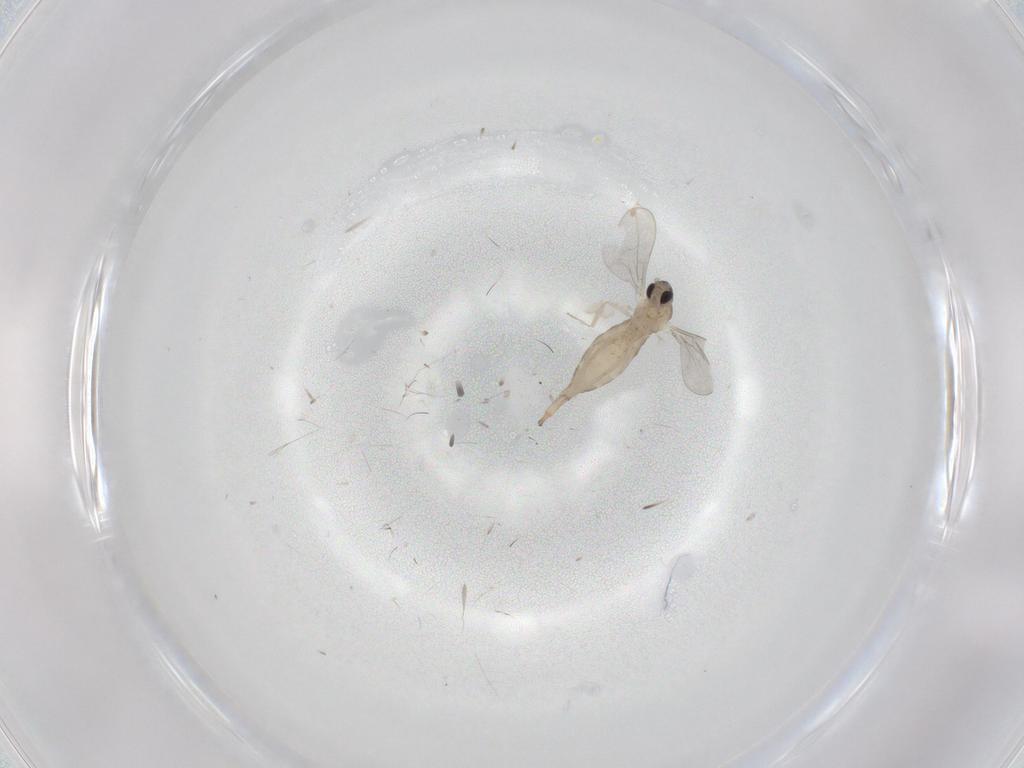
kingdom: Animalia
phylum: Arthropoda
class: Insecta
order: Diptera
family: Cecidomyiidae
